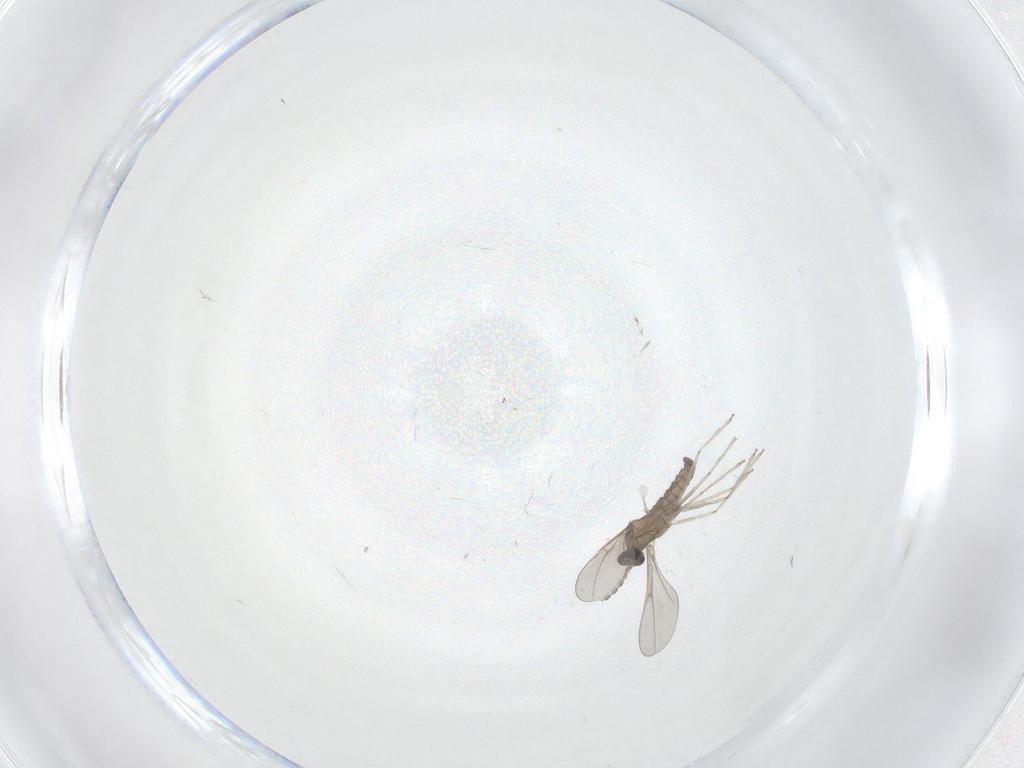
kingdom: Animalia
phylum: Arthropoda
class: Insecta
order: Diptera
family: Cecidomyiidae
